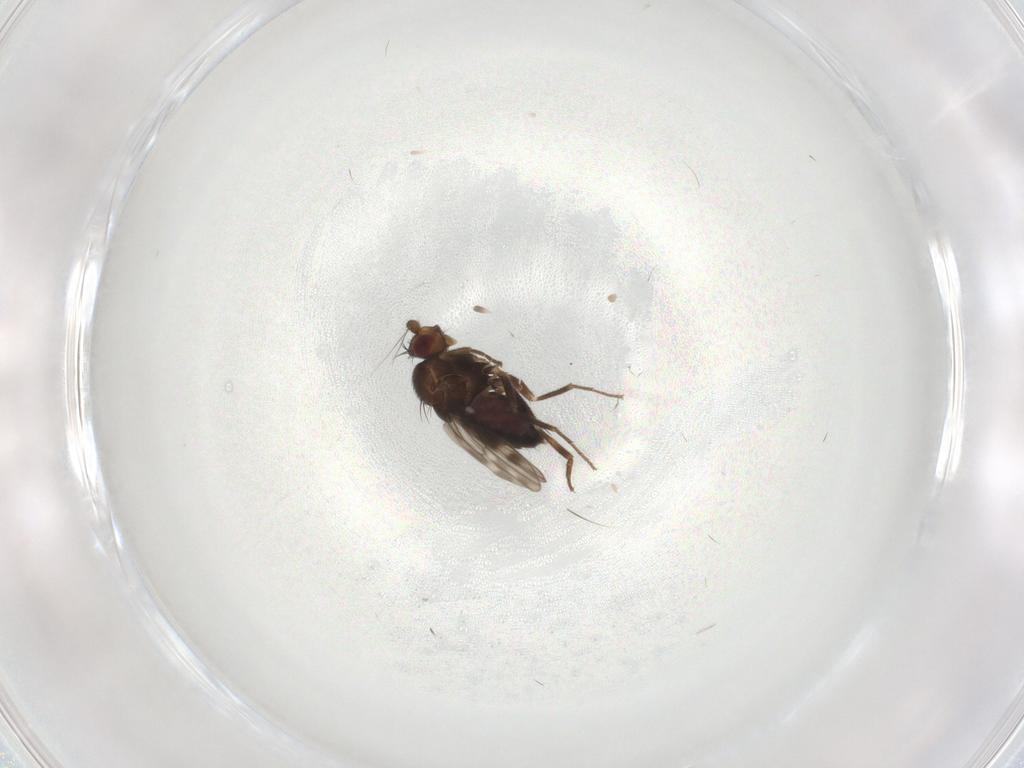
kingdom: Animalia
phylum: Arthropoda
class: Insecta
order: Diptera
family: Sphaeroceridae
